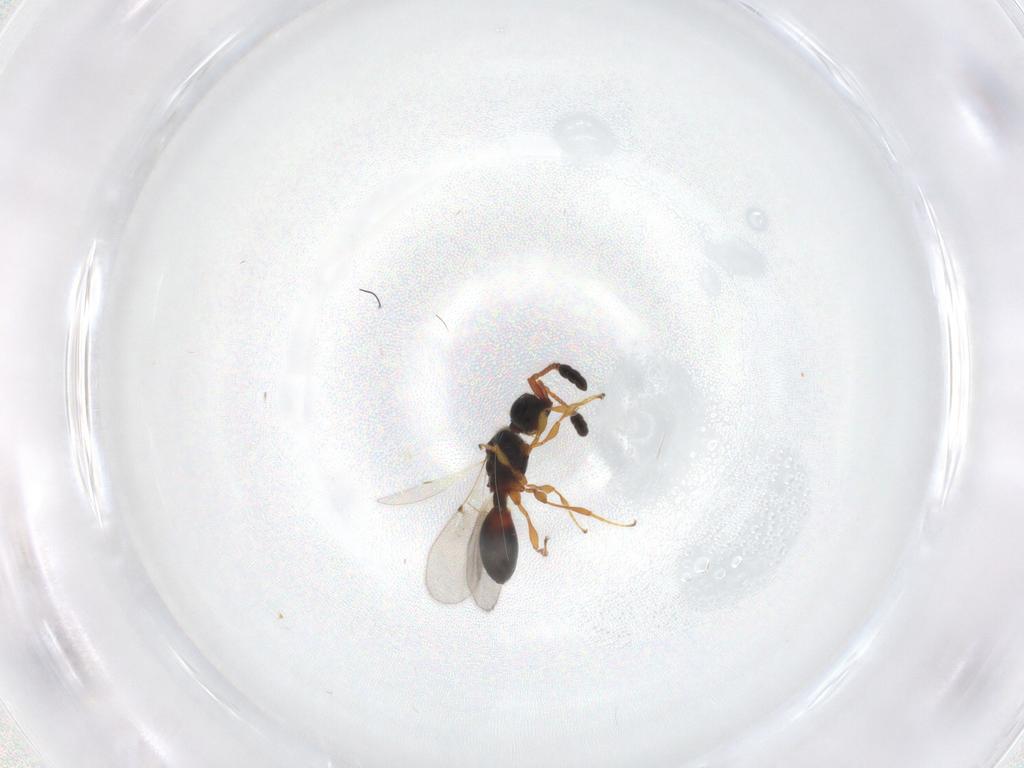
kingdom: Animalia
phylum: Arthropoda
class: Insecta
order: Hymenoptera
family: Diapriidae
